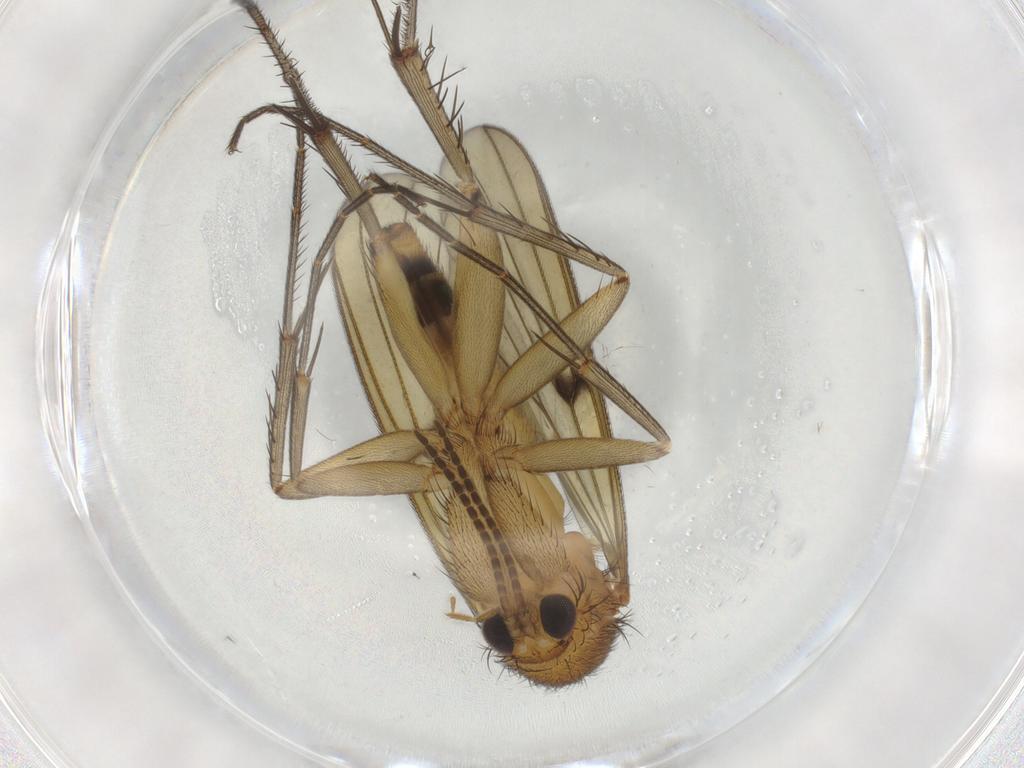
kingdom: Animalia
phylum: Arthropoda
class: Insecta
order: Diptera
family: Chironomidae
